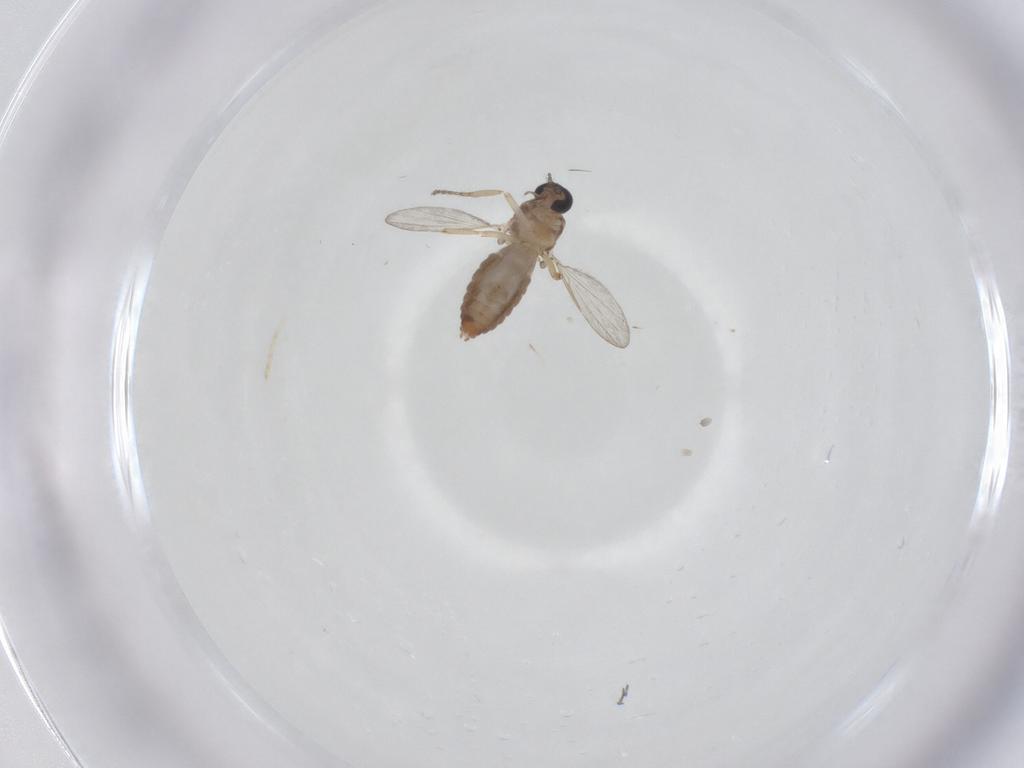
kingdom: Animalia
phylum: Arthropoda
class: Insecta
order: Diptera
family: Ceratopogonidae
